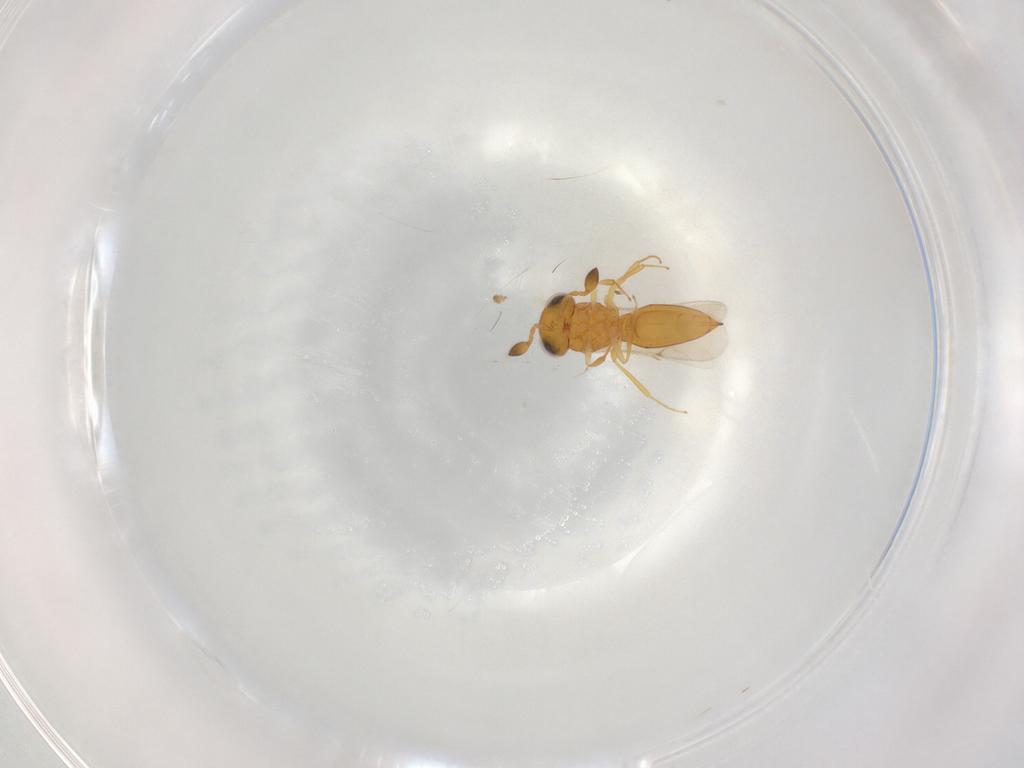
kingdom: Animalia
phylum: Arthropoda
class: Insecta
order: Hymenoptera
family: Scelionidae
